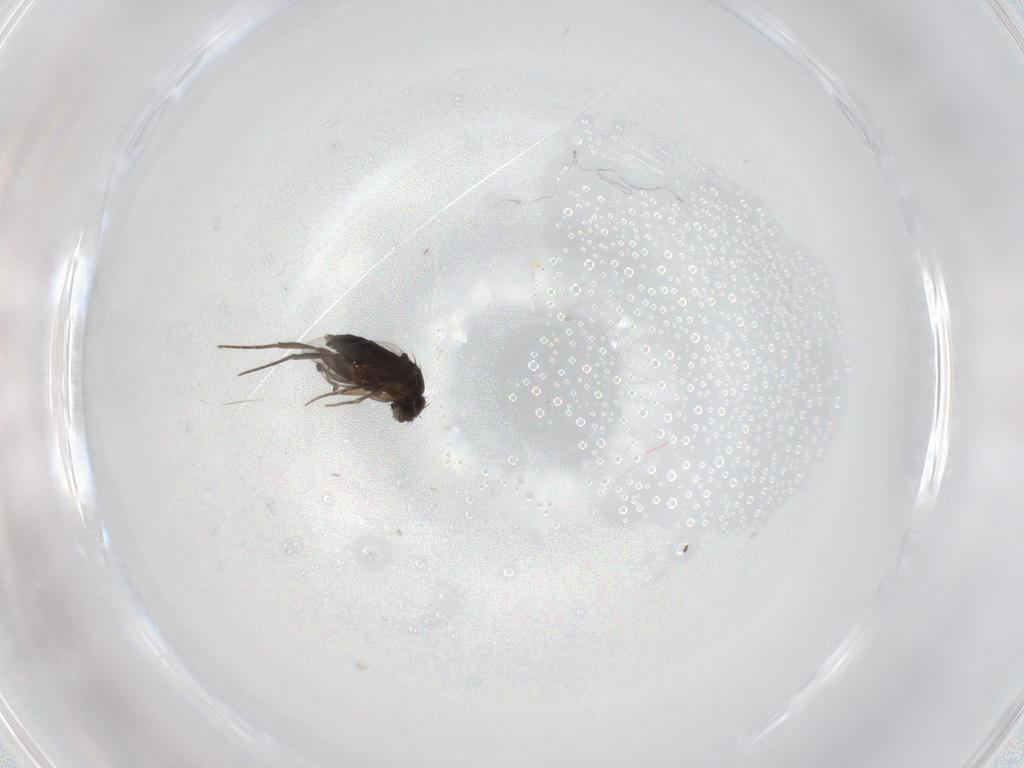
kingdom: Animalia
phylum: Arthropoda
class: Insecta
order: Diptera
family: Phoridae
